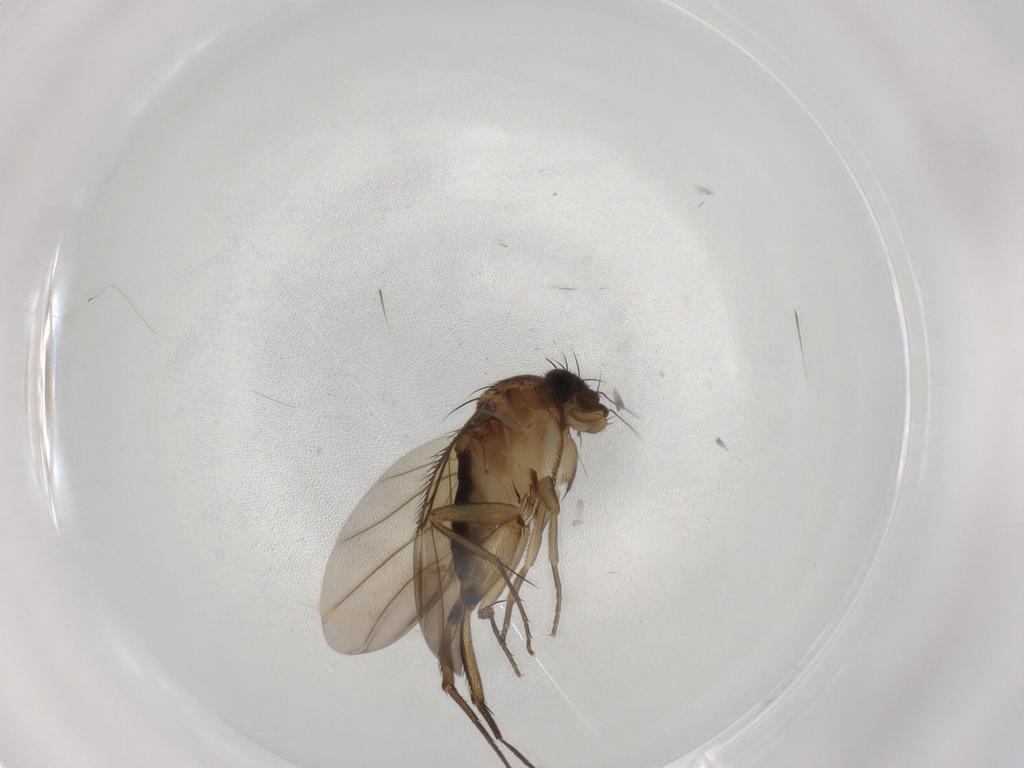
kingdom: Animalia
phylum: Arthropoda
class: Insecta
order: Diptera
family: Phoridae
